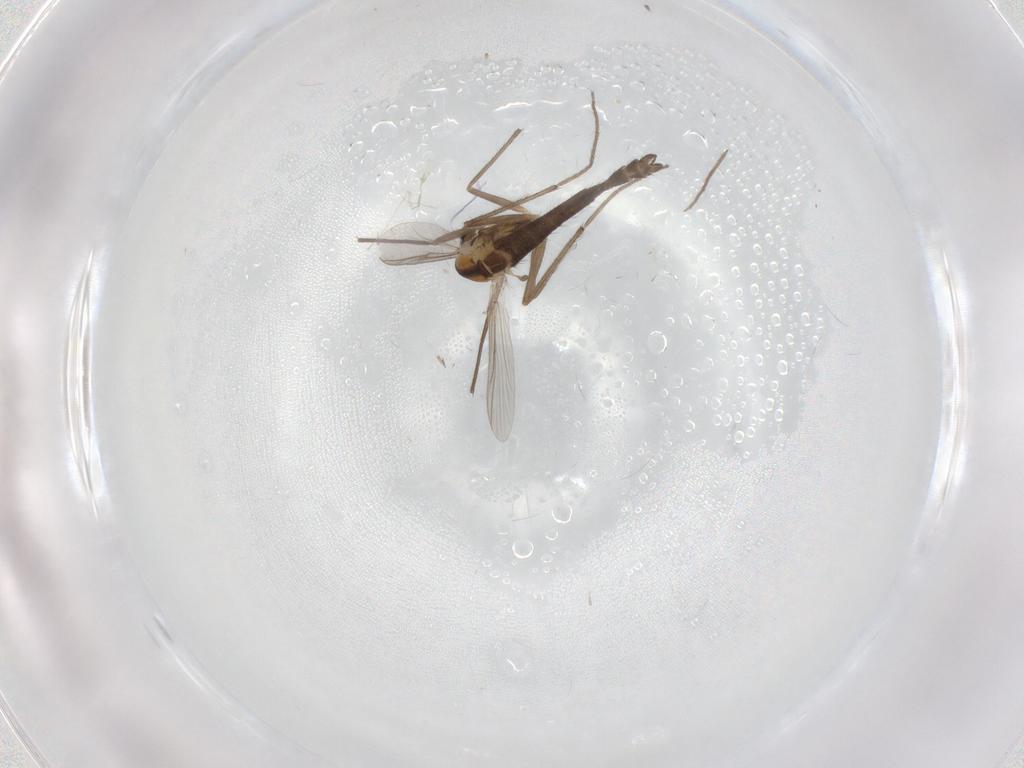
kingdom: Animalia
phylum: Arthropoda
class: Insecta
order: Diptera
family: Chironomidae
